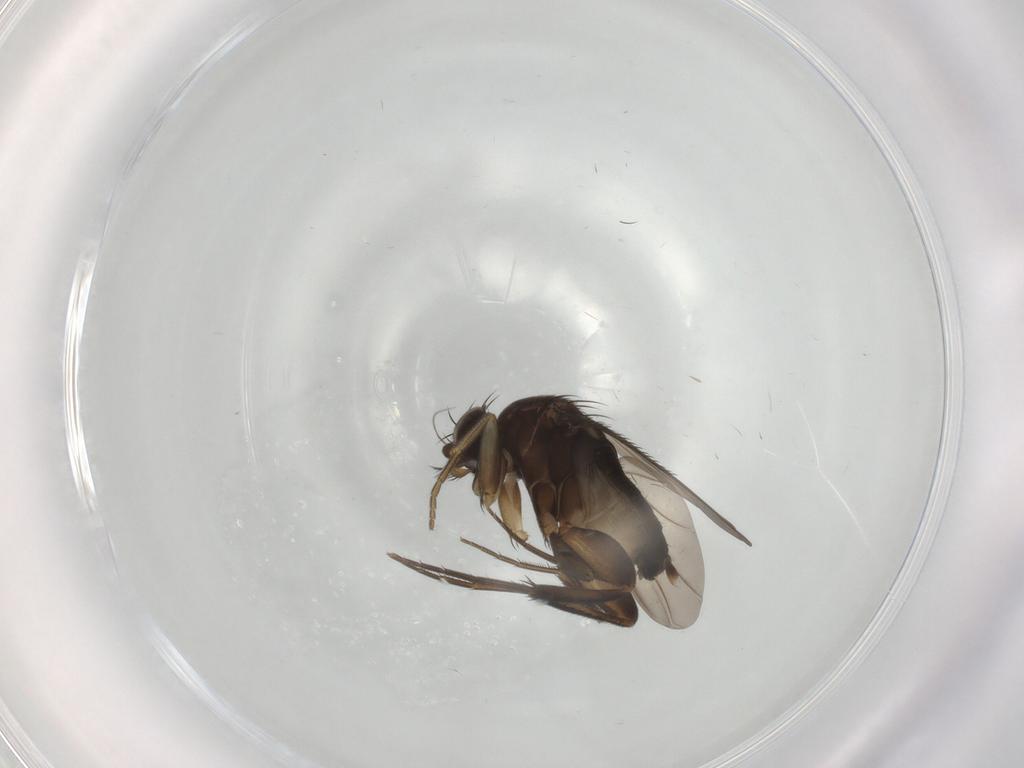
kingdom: Animalia
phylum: Arthropoda
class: Insecta
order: Diptera
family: Phoridae
